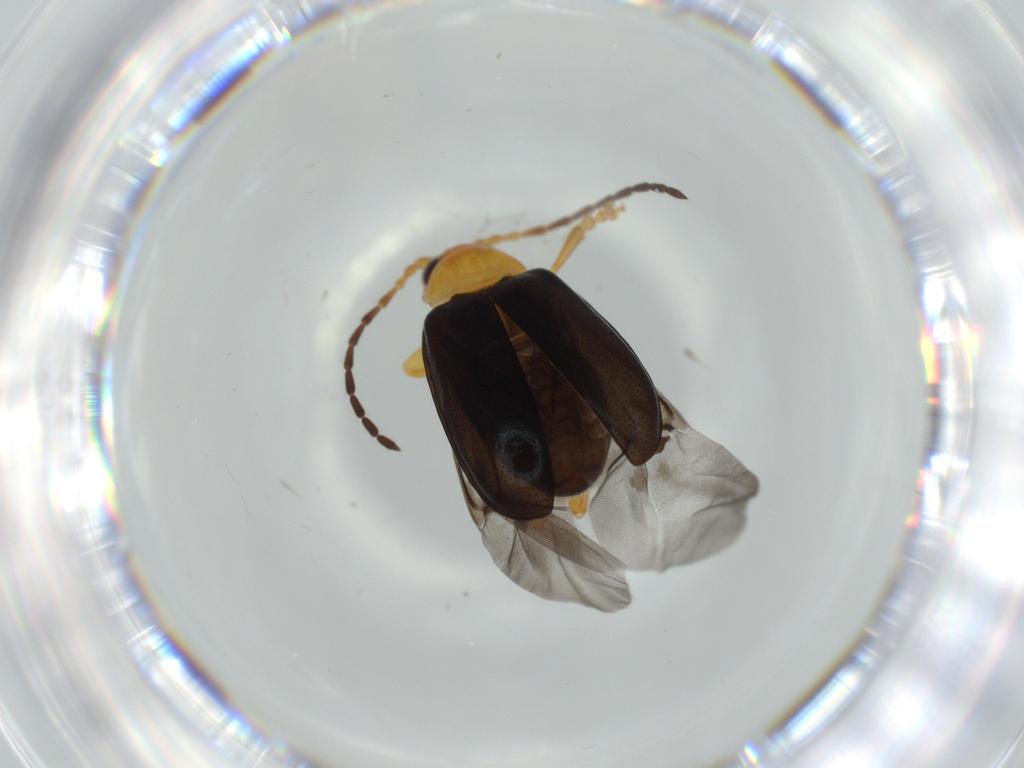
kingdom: Animalia
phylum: Arthropoda
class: Insecta
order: Coleoptera
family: Chrysomelidae
